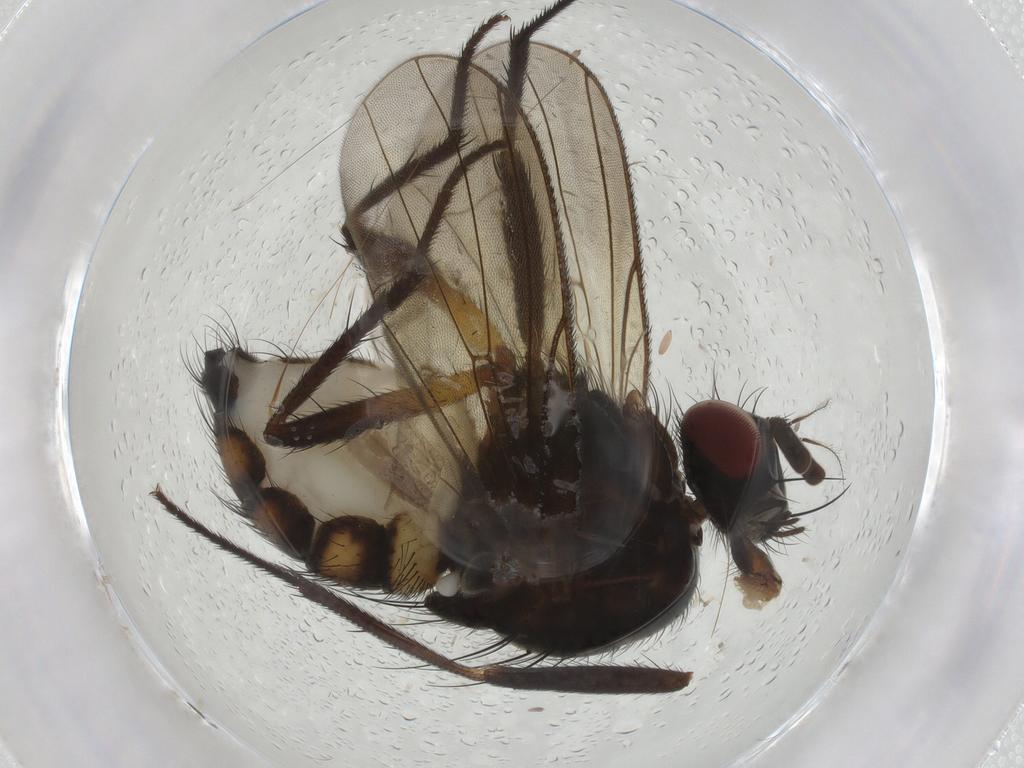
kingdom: Animalia
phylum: Arthropoda
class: Insecta
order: Diptera
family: Anthomyiidae
